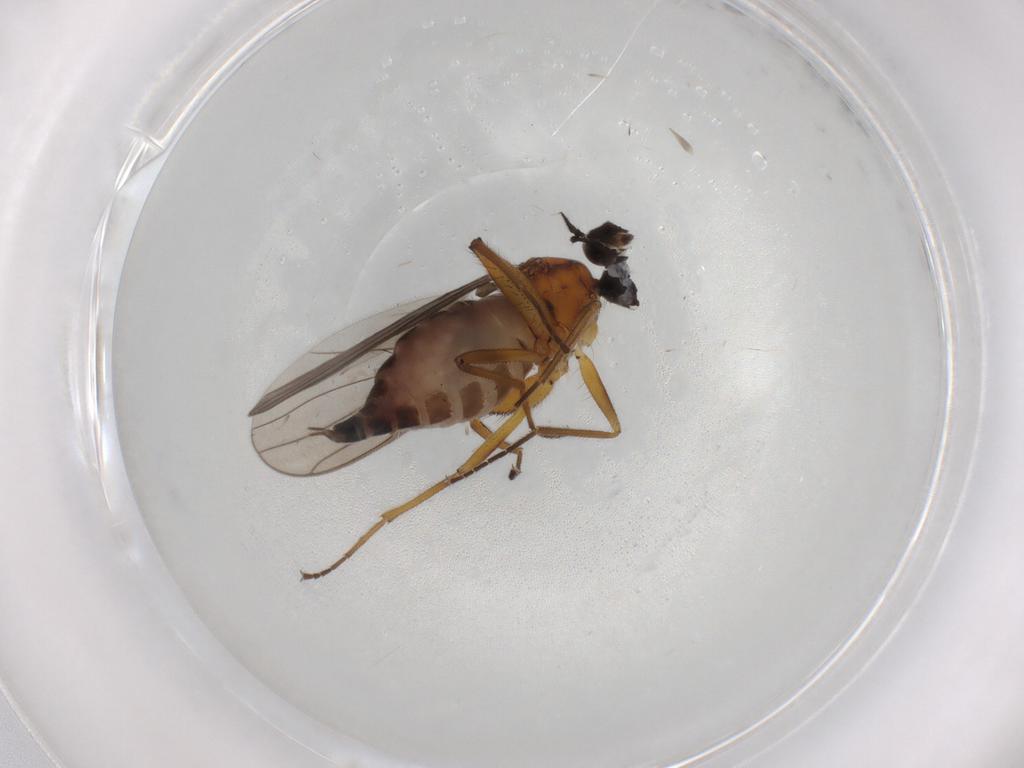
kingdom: Animalia
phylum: Arthropoda
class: Insecta
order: Diptera
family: Hybotidae
